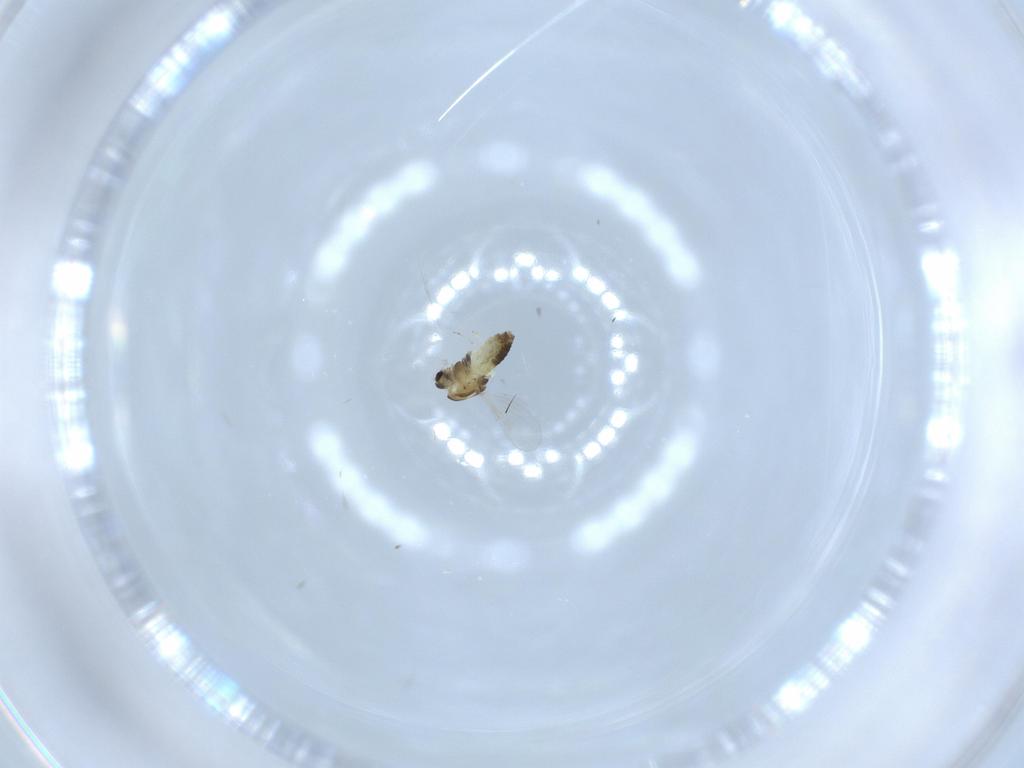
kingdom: Animalia
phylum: Arthropoda
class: Insecta
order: Diptera
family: Chironomidae
